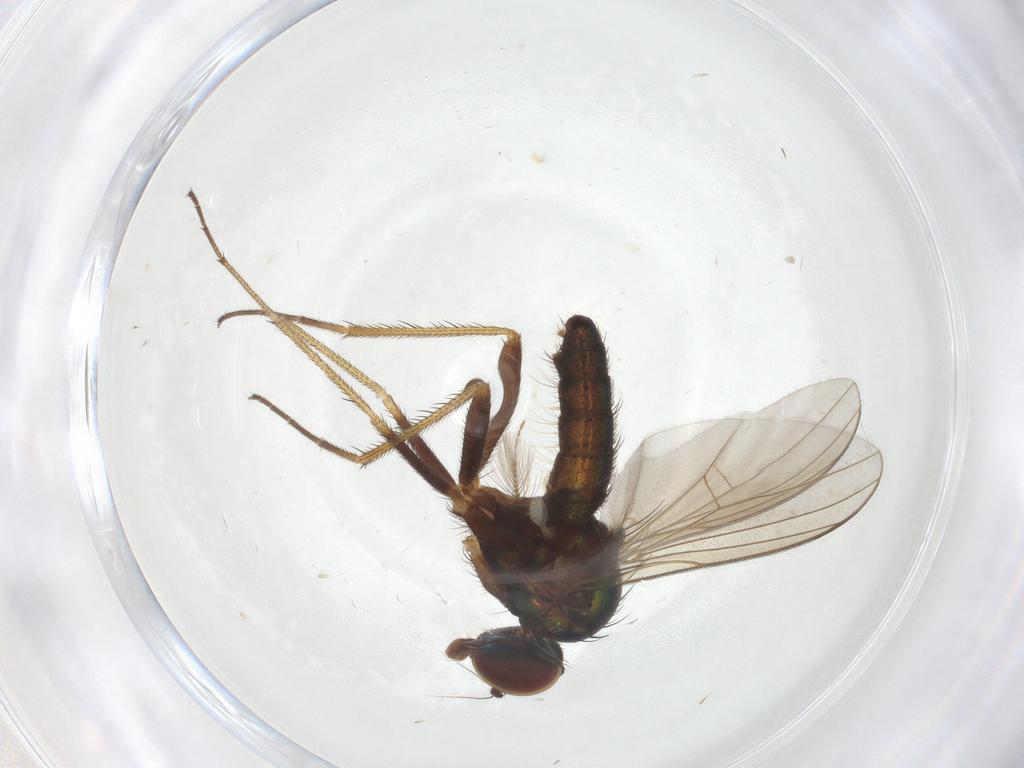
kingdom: Animalia
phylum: Arthropoda
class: Insecta
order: Diptera
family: Dolichopodidae
